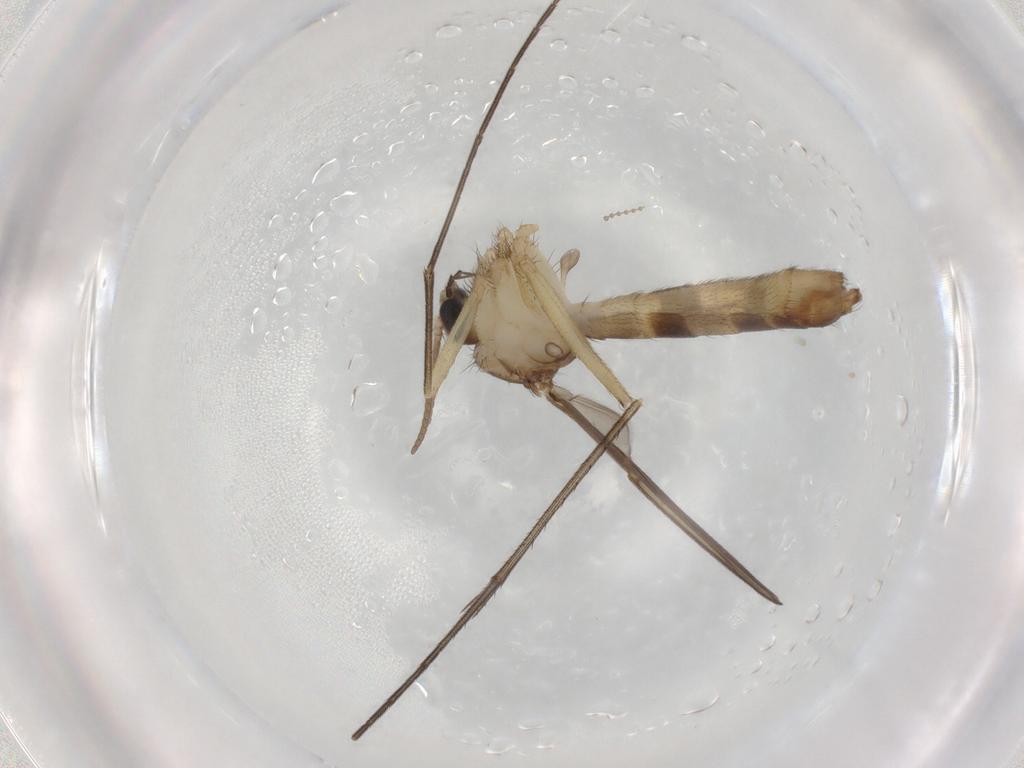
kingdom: Animalia
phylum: Arthropoda
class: Insecta
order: Diptera
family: Mycetophilidae
